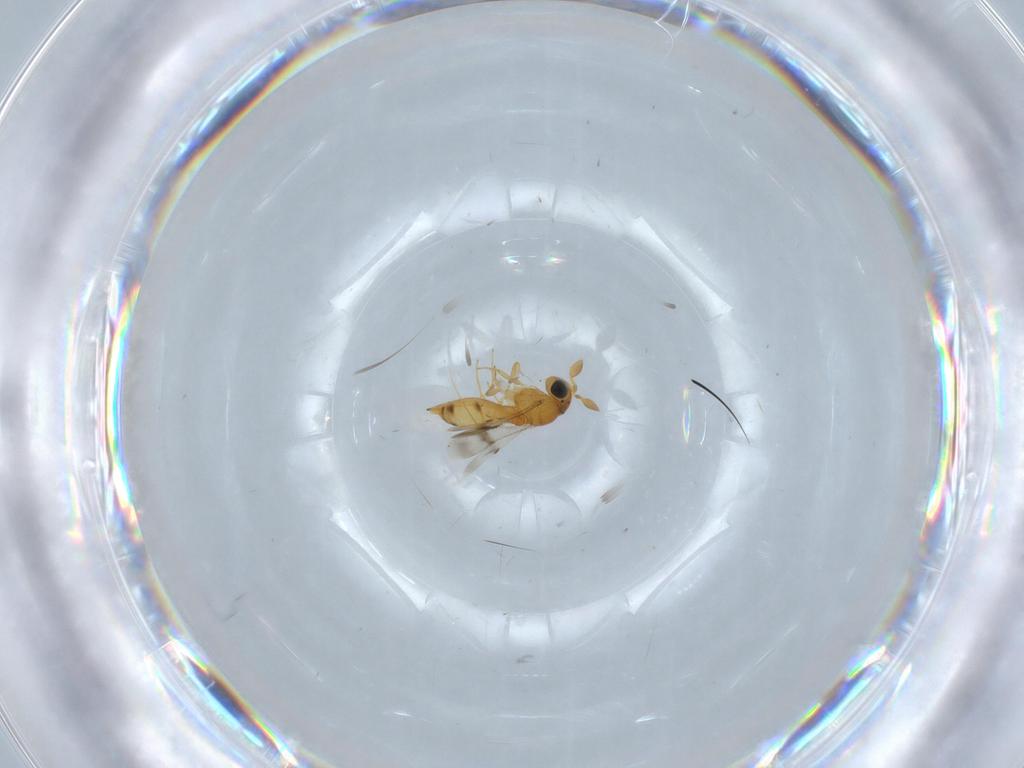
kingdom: Animalia
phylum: Arthropoda
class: Insecta
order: Hymenoptera
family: Scelionidae
